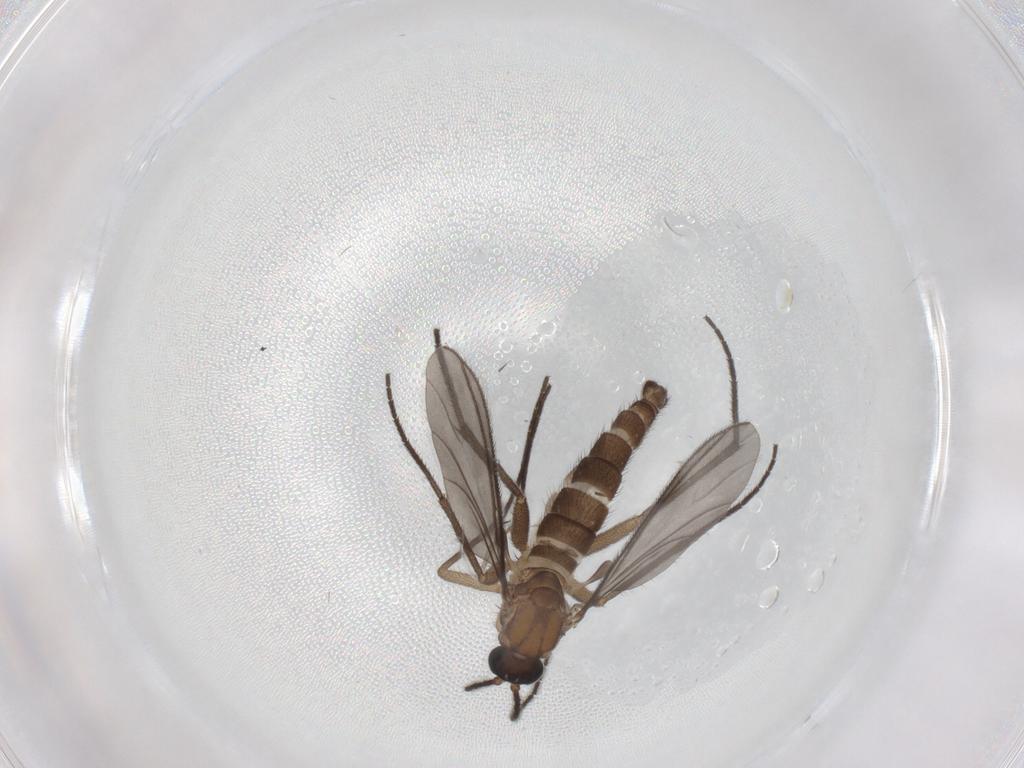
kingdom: Animalia
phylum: Arthropoda
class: Insecta
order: Diptera
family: Sciaridae
